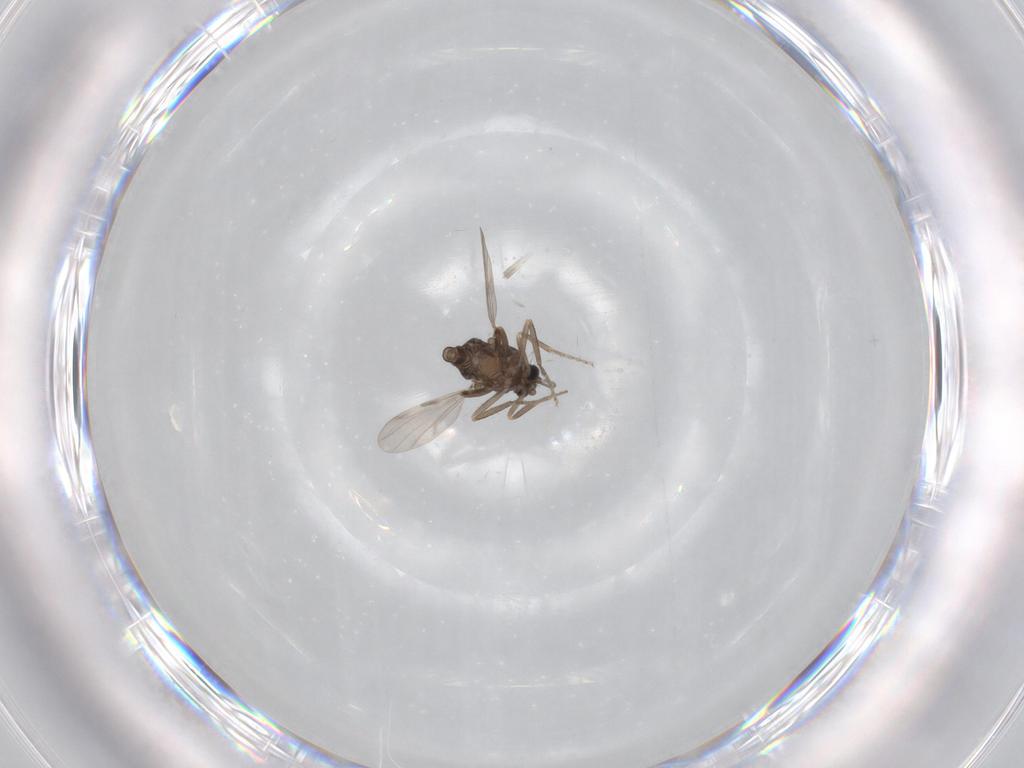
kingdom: Animalia
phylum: Arthropoda
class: Insecta
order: Diptera
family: Ceratopogonidae
